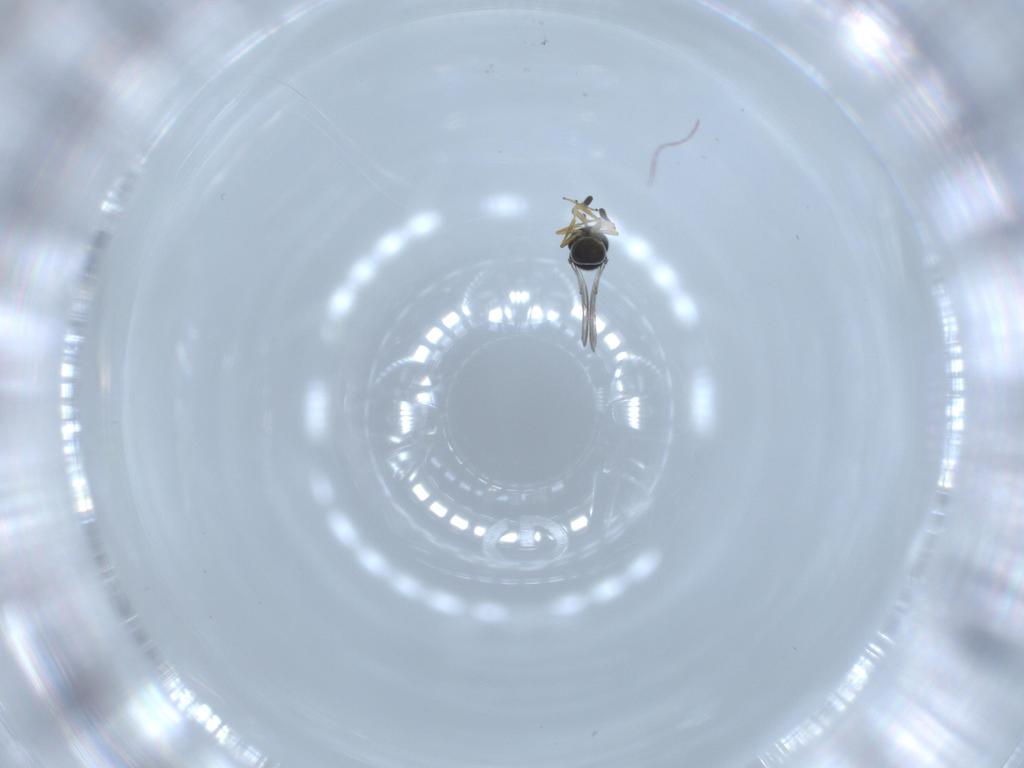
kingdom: Animalia
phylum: Arthropoda
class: Insecta
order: Hymenoptera
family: Scelionidae
